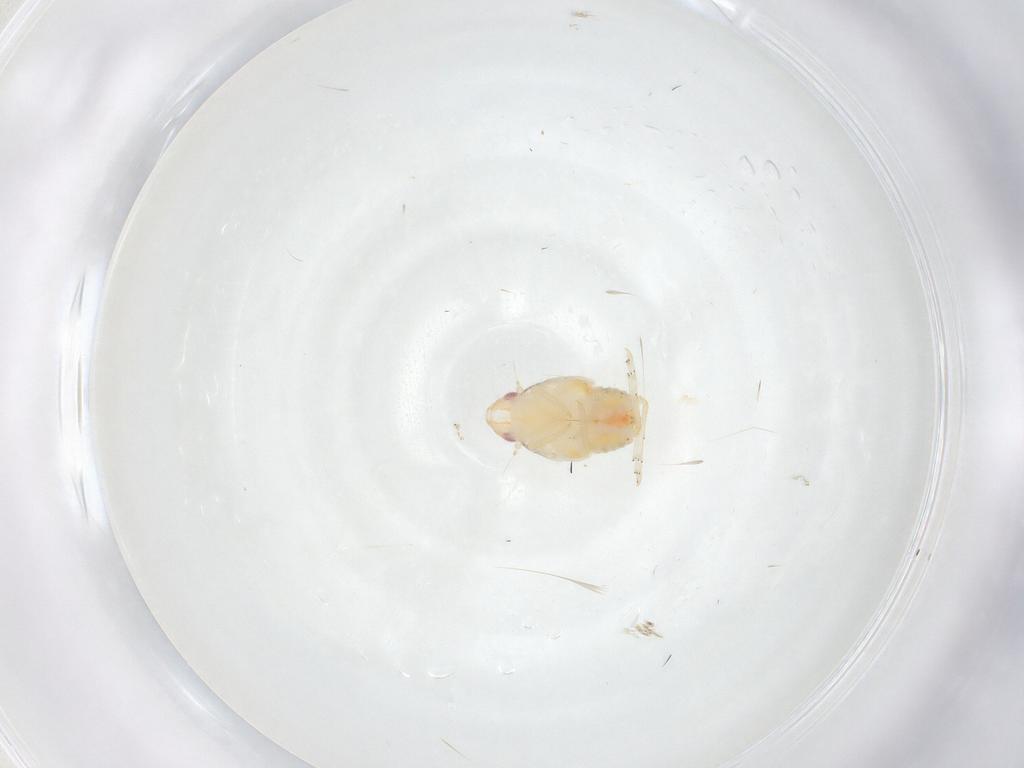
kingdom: Animalia
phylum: Arthropoda
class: Insecta
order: Hemiptera
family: Flatidae
